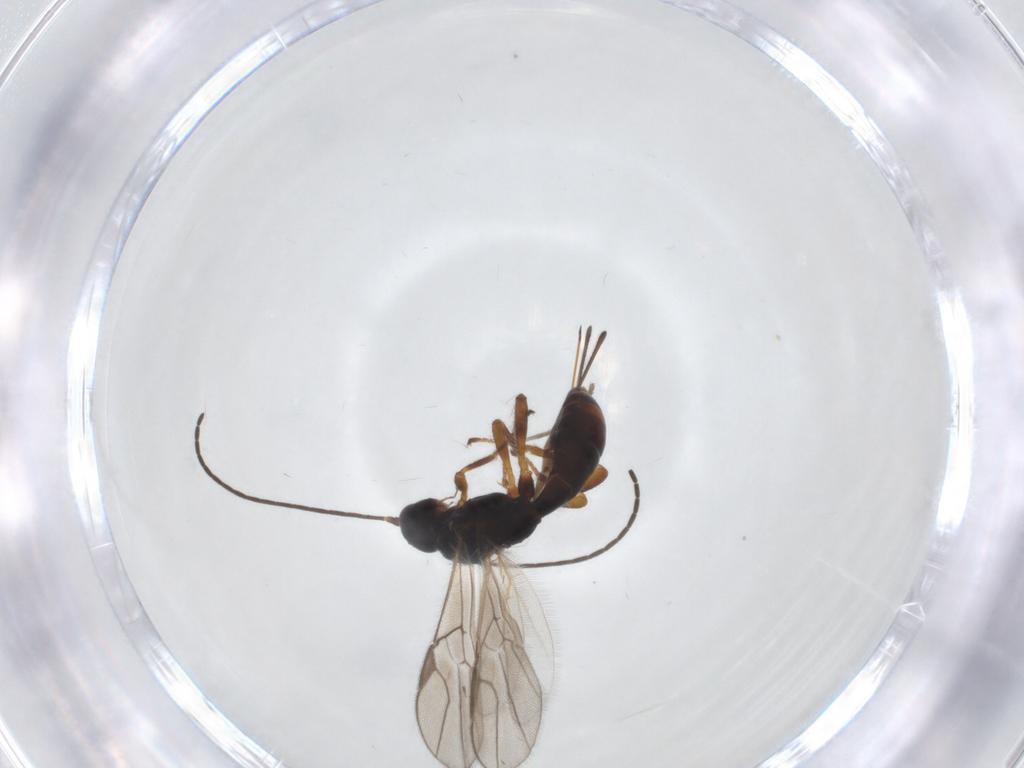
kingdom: Animalia
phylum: Arthropoda
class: Insecta
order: Hymenoptera
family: Braconidae
